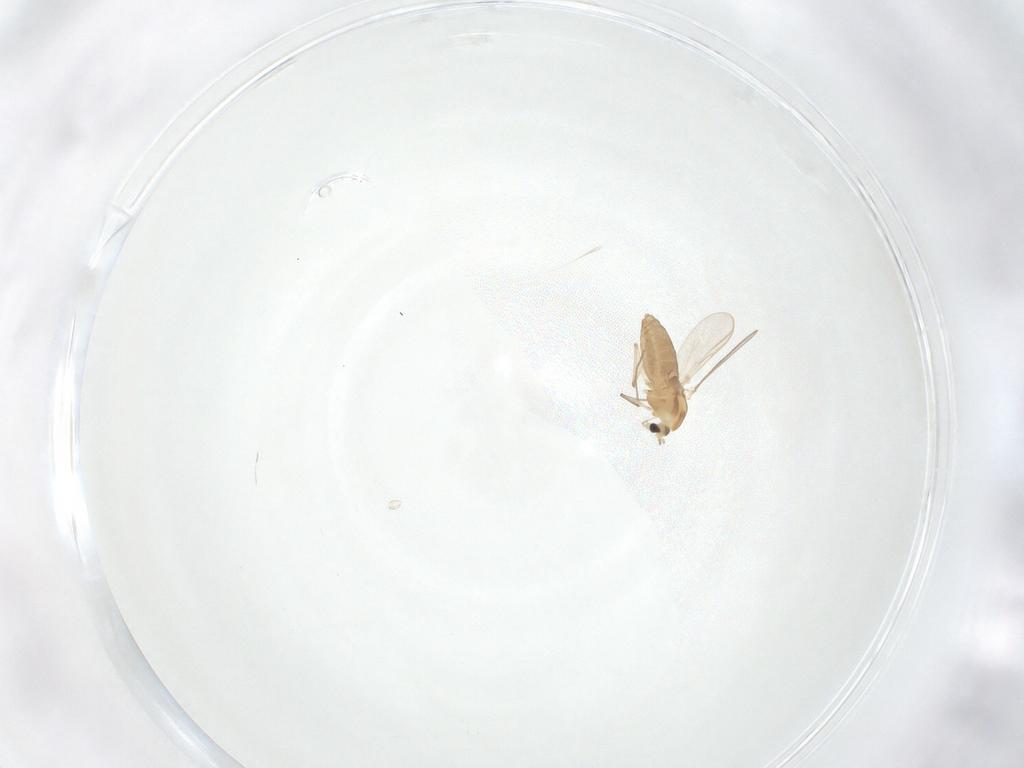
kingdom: Animalia
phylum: Arthropoda
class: Insecta
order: Diptera
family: Chironomidae
